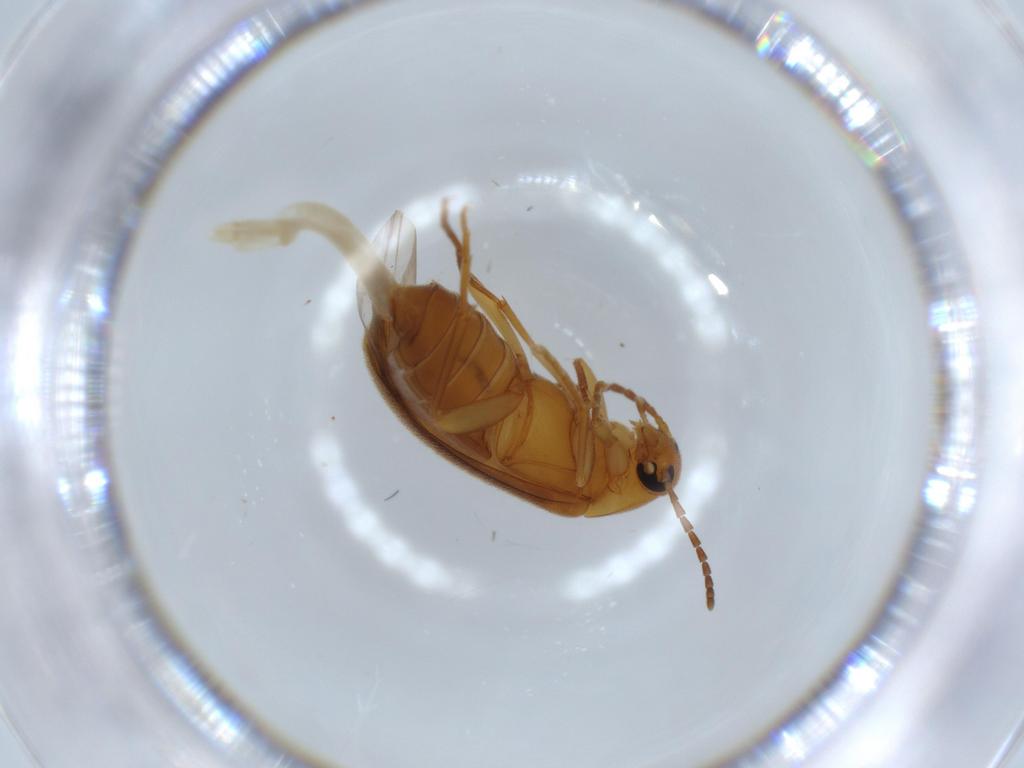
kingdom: Animalia
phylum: Arthropoda
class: Insecta
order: Coleoptera
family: Scraptiidae
